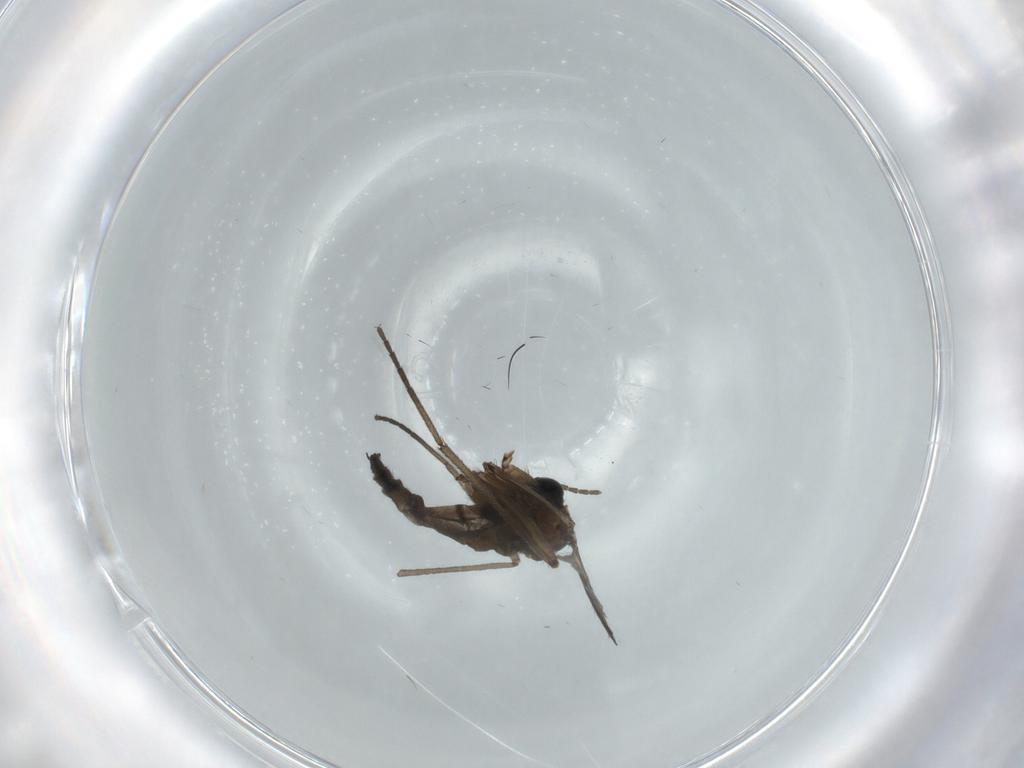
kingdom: Animalia
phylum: Arthropoda
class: Insecta
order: Diptera
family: Sphaeroceridae
